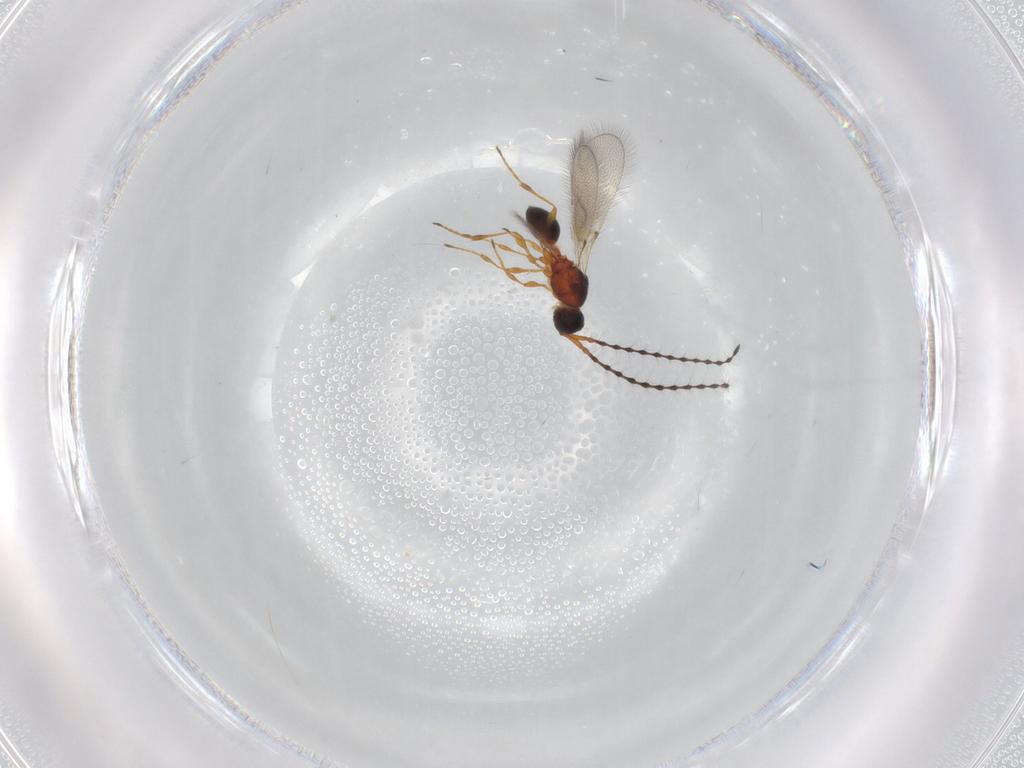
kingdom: Animalia
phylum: Arthropoda
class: Insecta
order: Hymenoptera
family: Diapriidae
